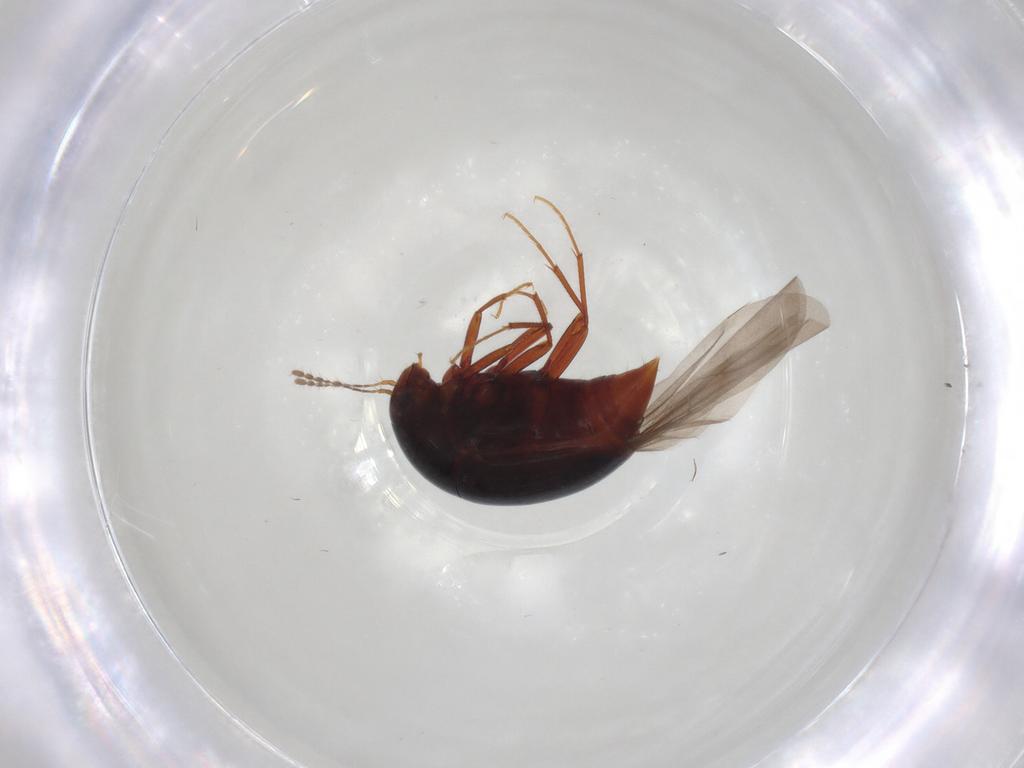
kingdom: Animalia
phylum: Arthropoda
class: Insecta
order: Coleoptera
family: Staphylinidae
